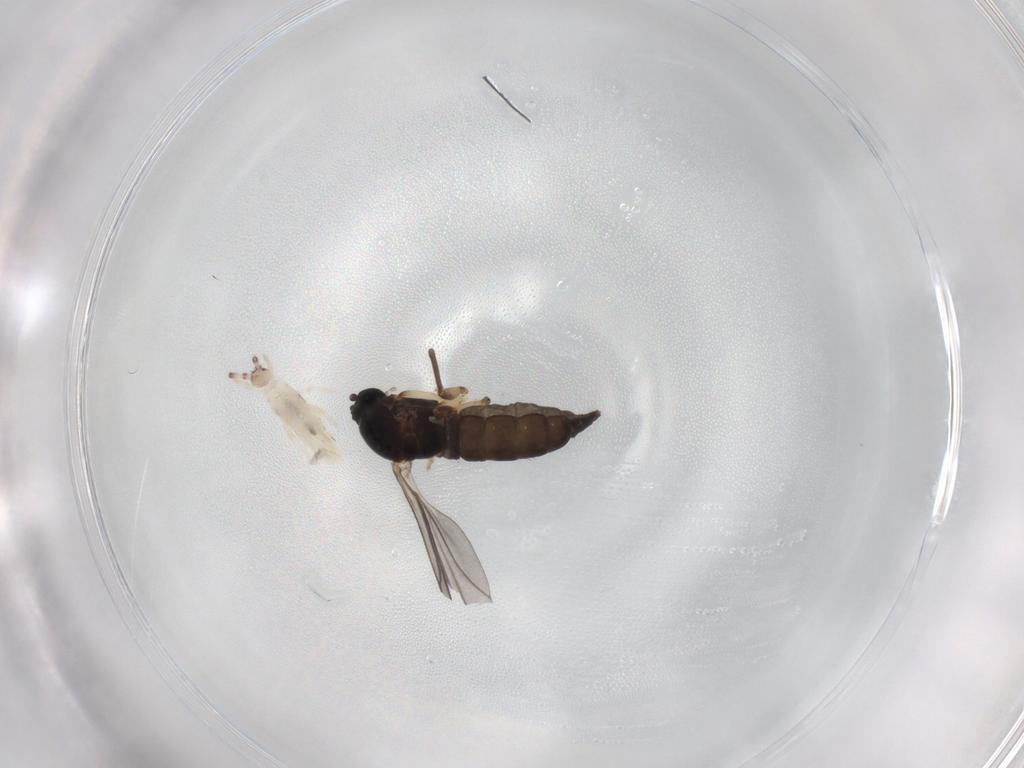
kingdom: Animalia
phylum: Arthropoda
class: Insecta
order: Diptera
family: Sciaridae
